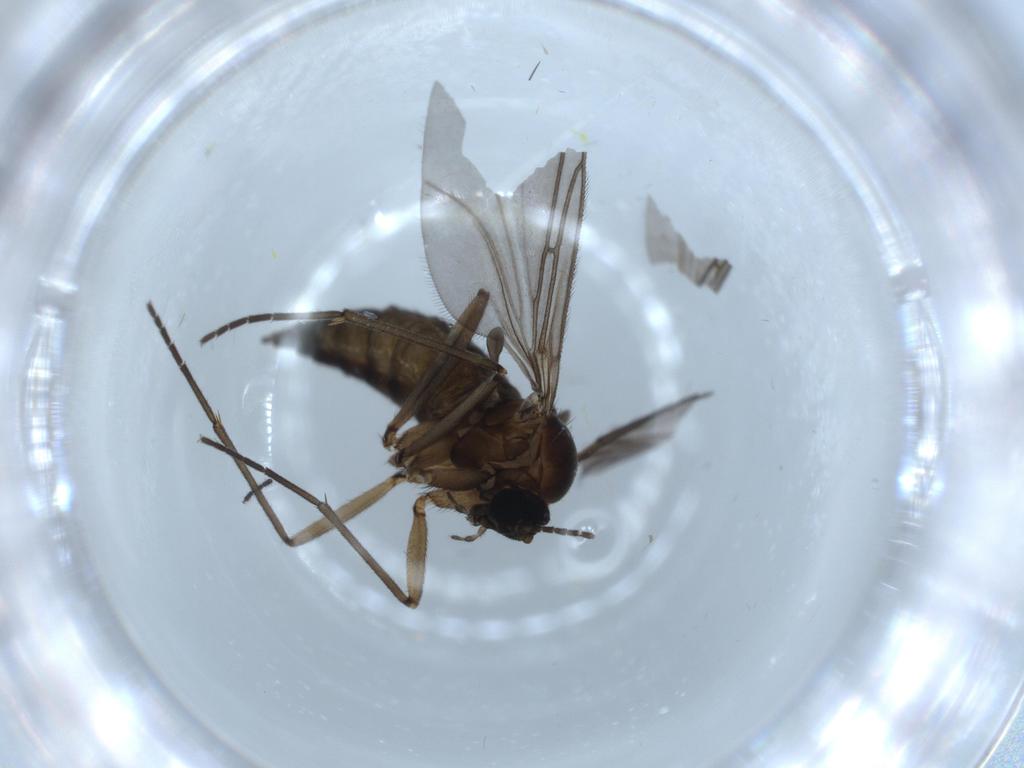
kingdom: Animalia
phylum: Arthropoda
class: Insecta
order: Diptera
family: Sciaridae
